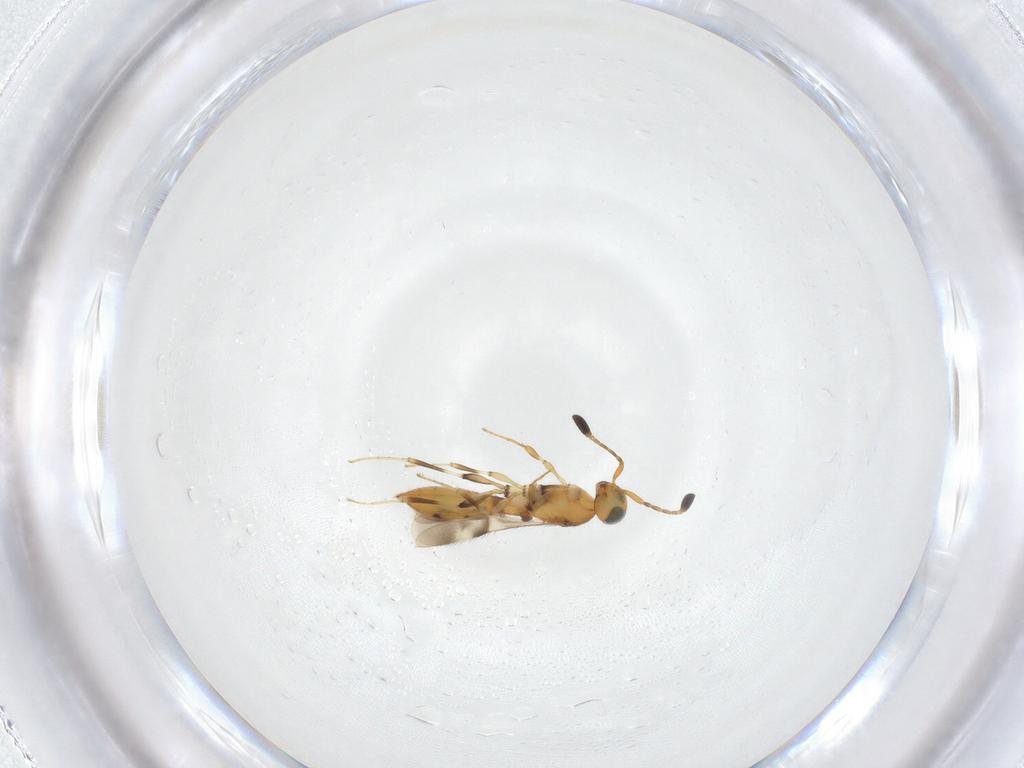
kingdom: Animalia
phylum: Arthropoda
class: Insecta
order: Hymenoptera
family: Scelionidae
